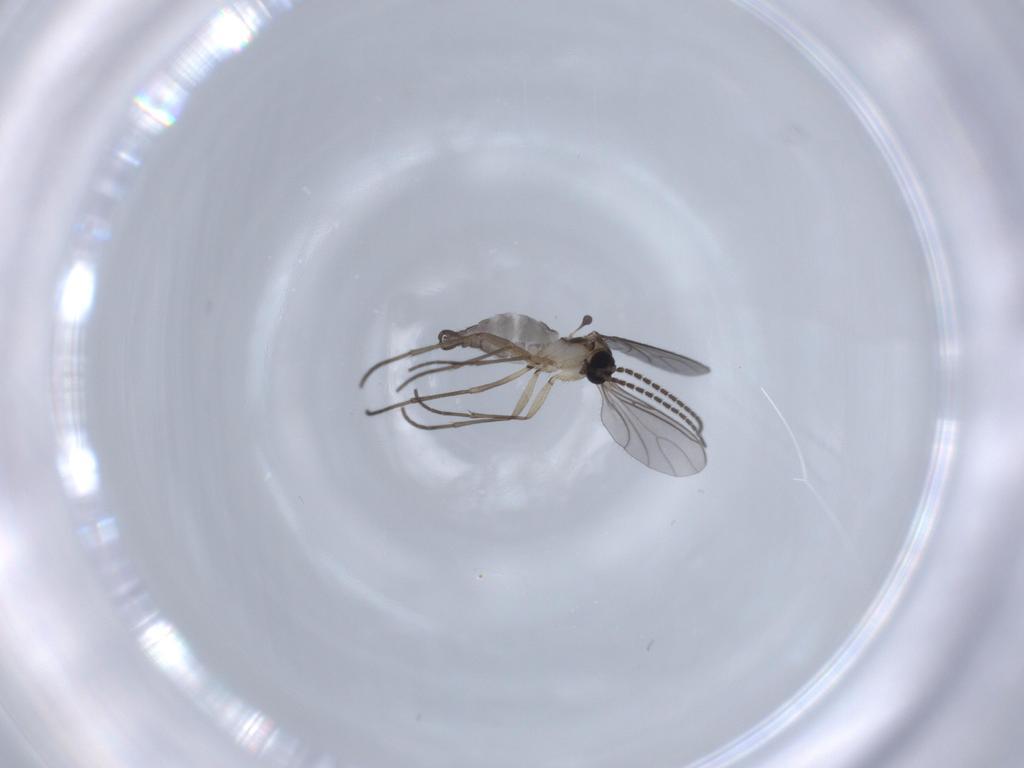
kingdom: Animalia
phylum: Arthropoda
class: Insecta
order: Diptera
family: Sciaridae
